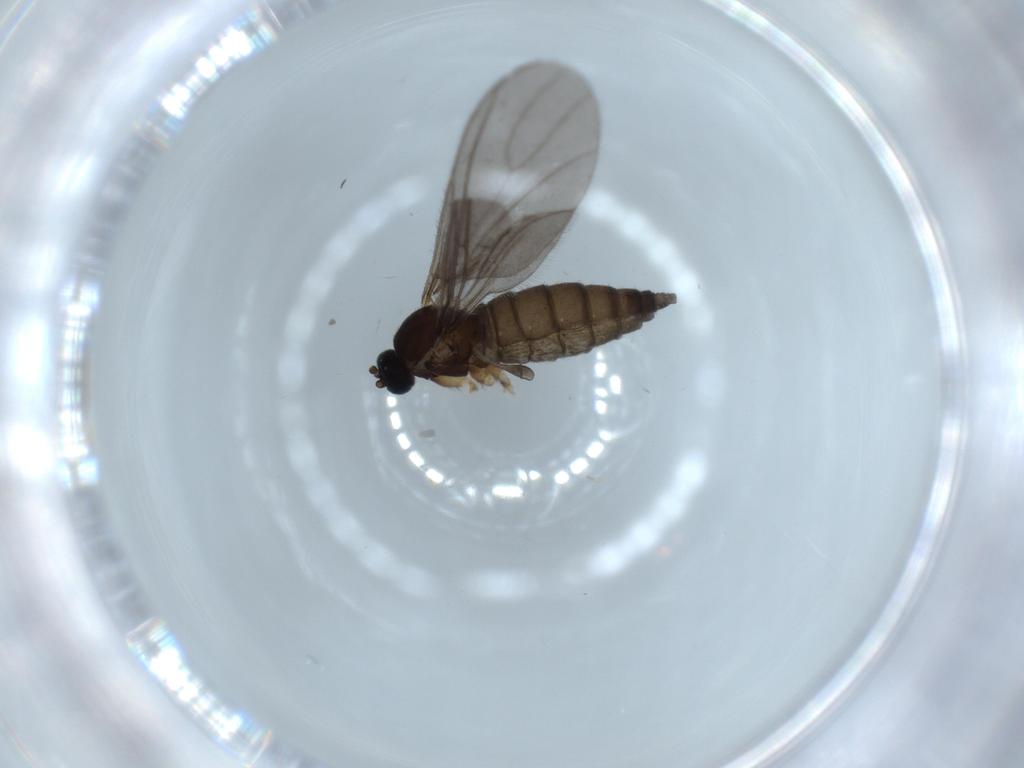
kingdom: Animalia
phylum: Arthropoda
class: Insecta
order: Diptera
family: Sciaridae
